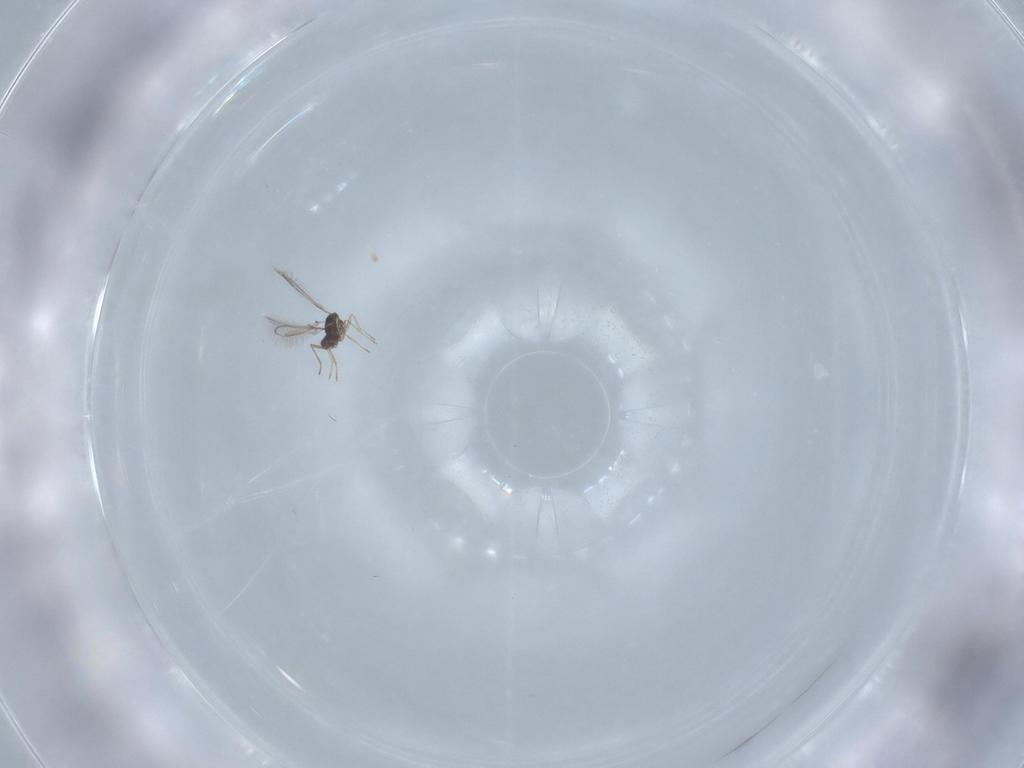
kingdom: Animalia
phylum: Arthropoda
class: Insecta
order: Hymenoptera
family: Mymaridae
